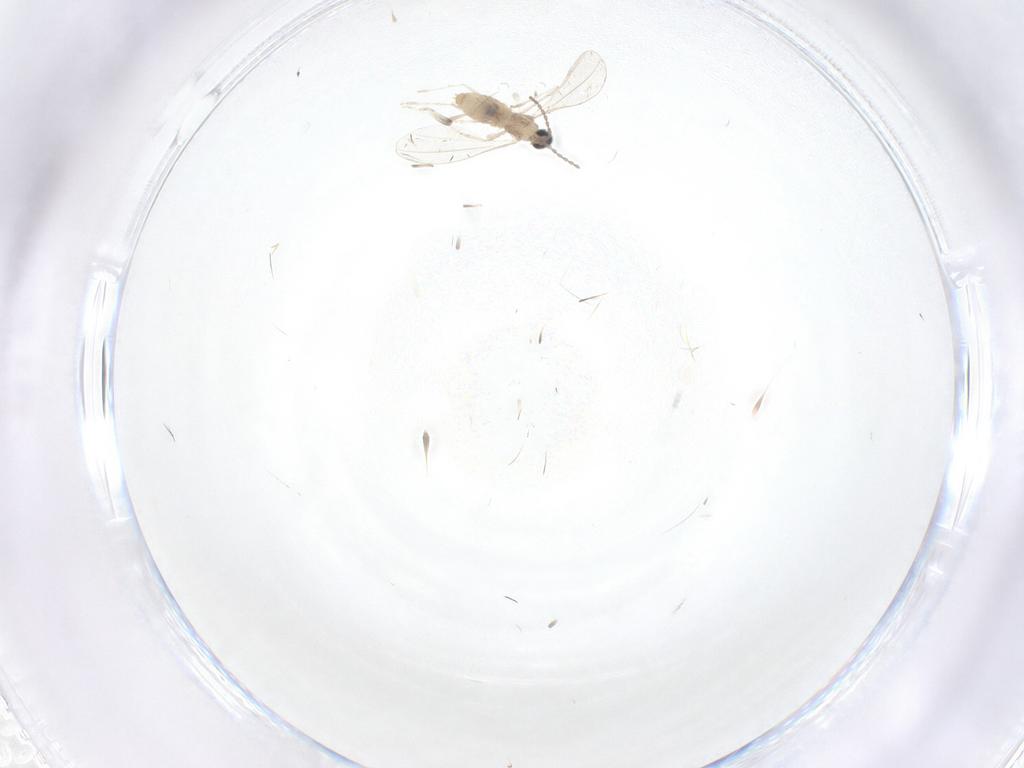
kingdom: Animalia
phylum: Arthropoda
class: Insecta
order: Diptera
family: Cecidomyiidae
